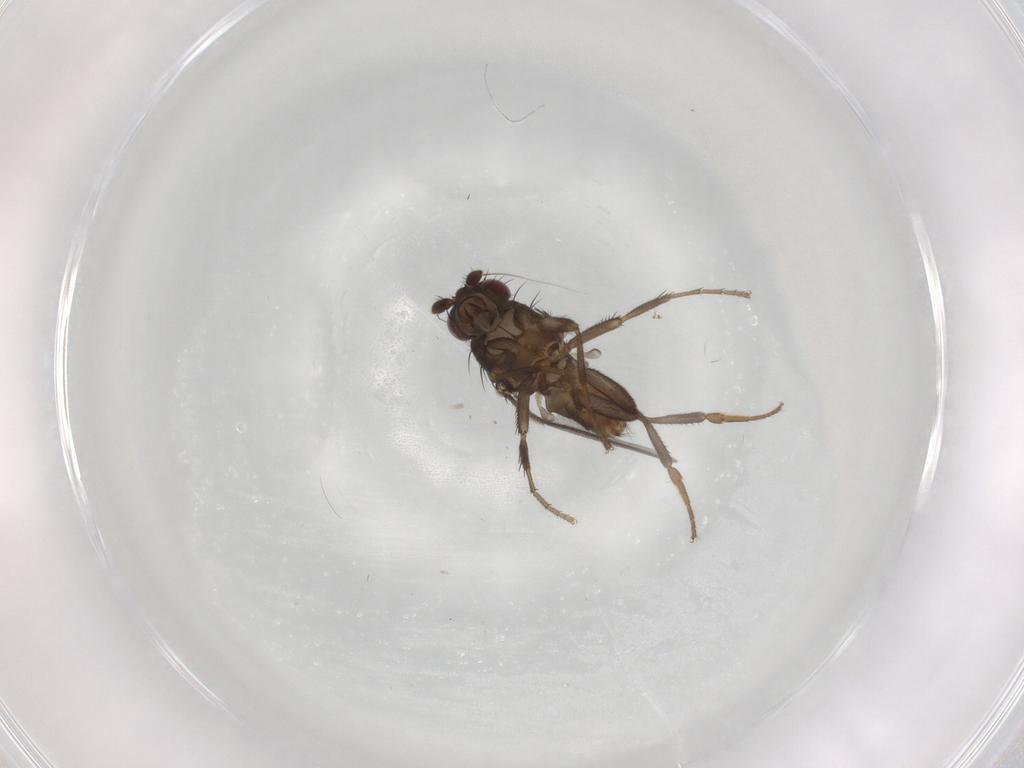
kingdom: Animalia
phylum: Arthropoda
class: Insecta
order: Diptera
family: Sphaeroceridae
